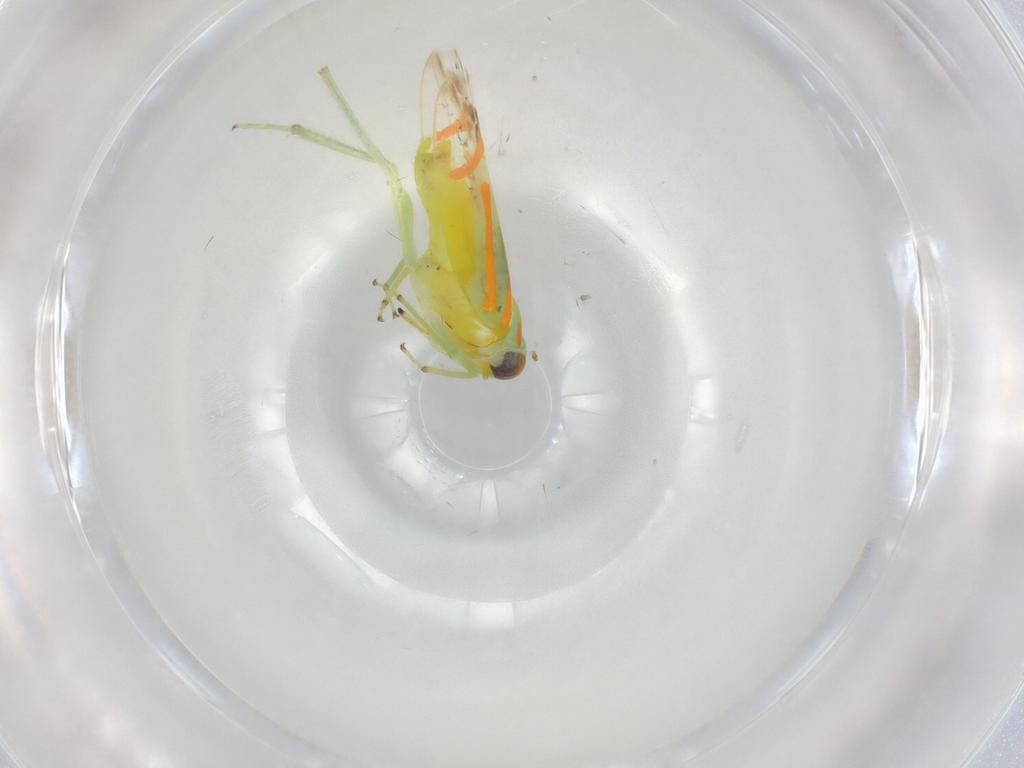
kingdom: Animalia
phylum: Arthropoda
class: Insecta
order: Hemiptera
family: Cicadellidae
